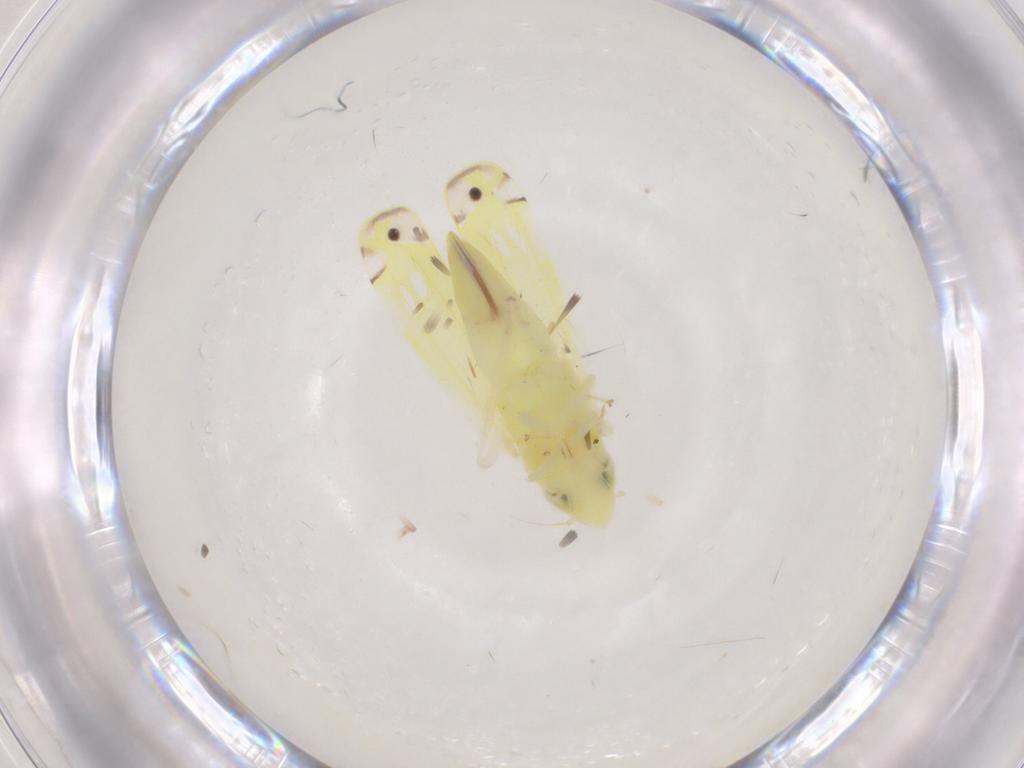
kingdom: Animalia
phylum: Arthropoda
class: Insecta
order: Lepidoptera
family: Lecithoceridae
